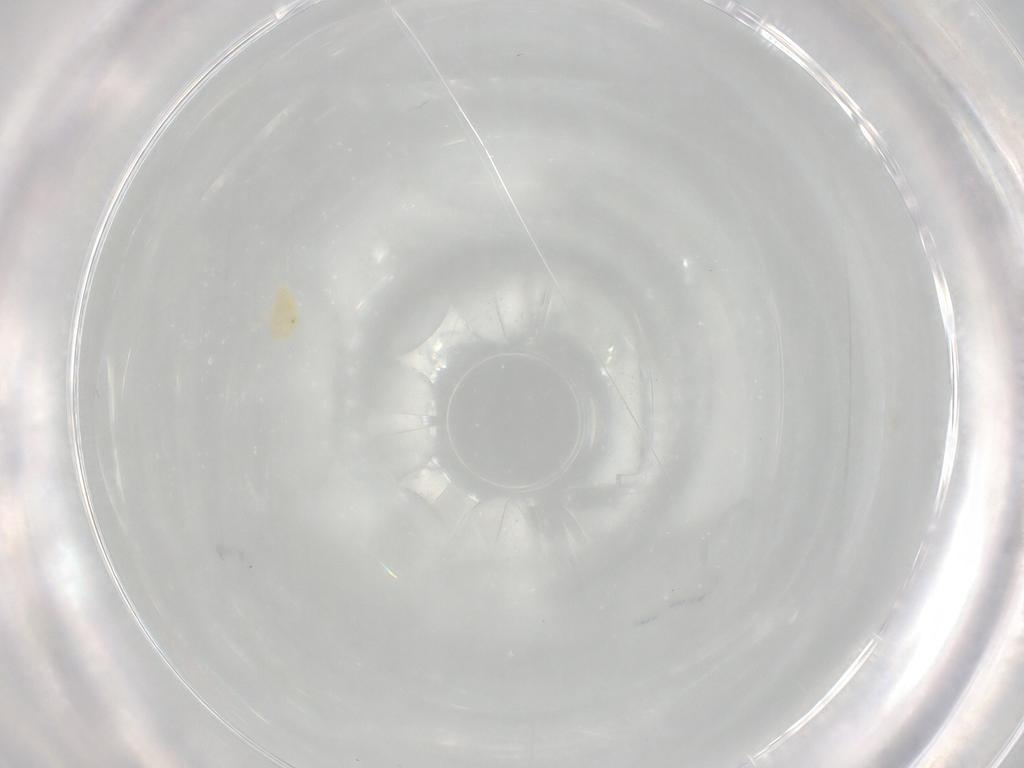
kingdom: Animalia
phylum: Arthropoda
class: Arachnida
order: Trombidiformes
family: Eupodidae
